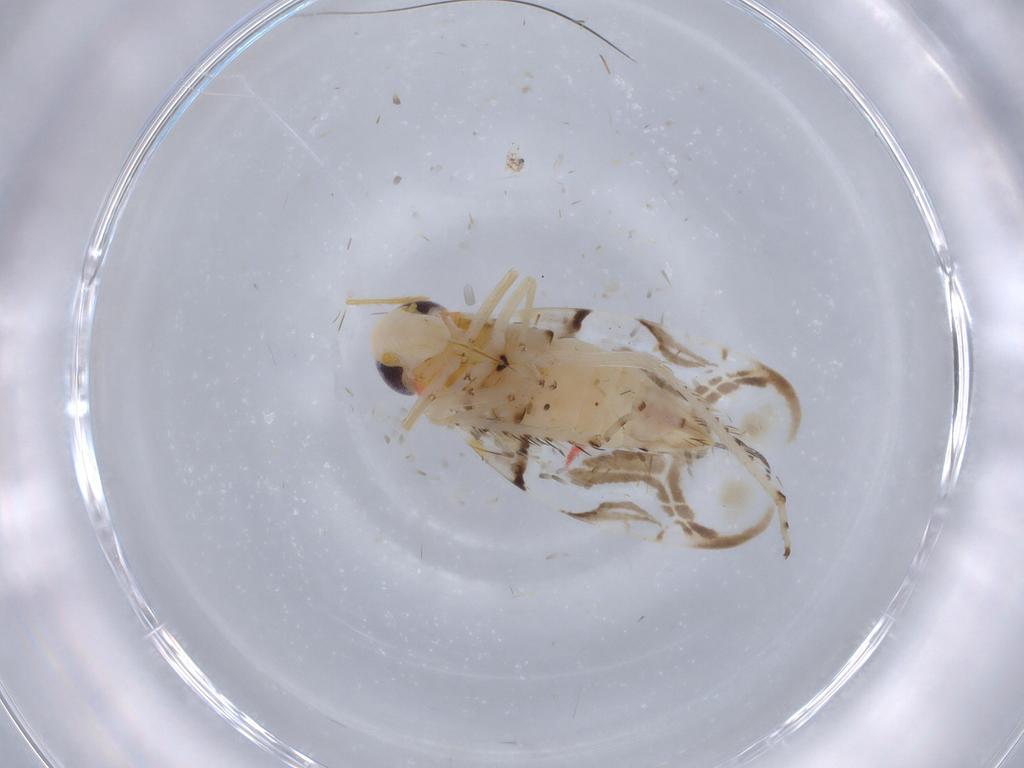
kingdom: Animalia
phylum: Arthropoda
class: Insecta
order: Hemiptera
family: Cicadellidae
